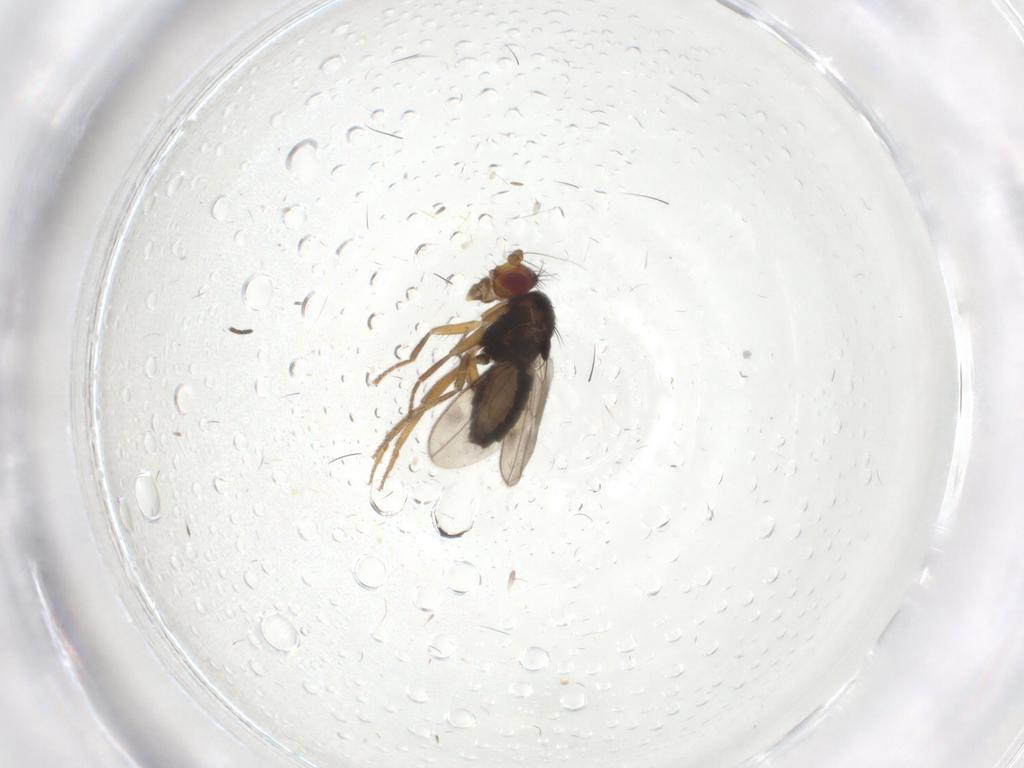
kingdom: Animalia
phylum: Arthropoda
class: Insecta
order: Diptera
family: Sphaeroceridae
